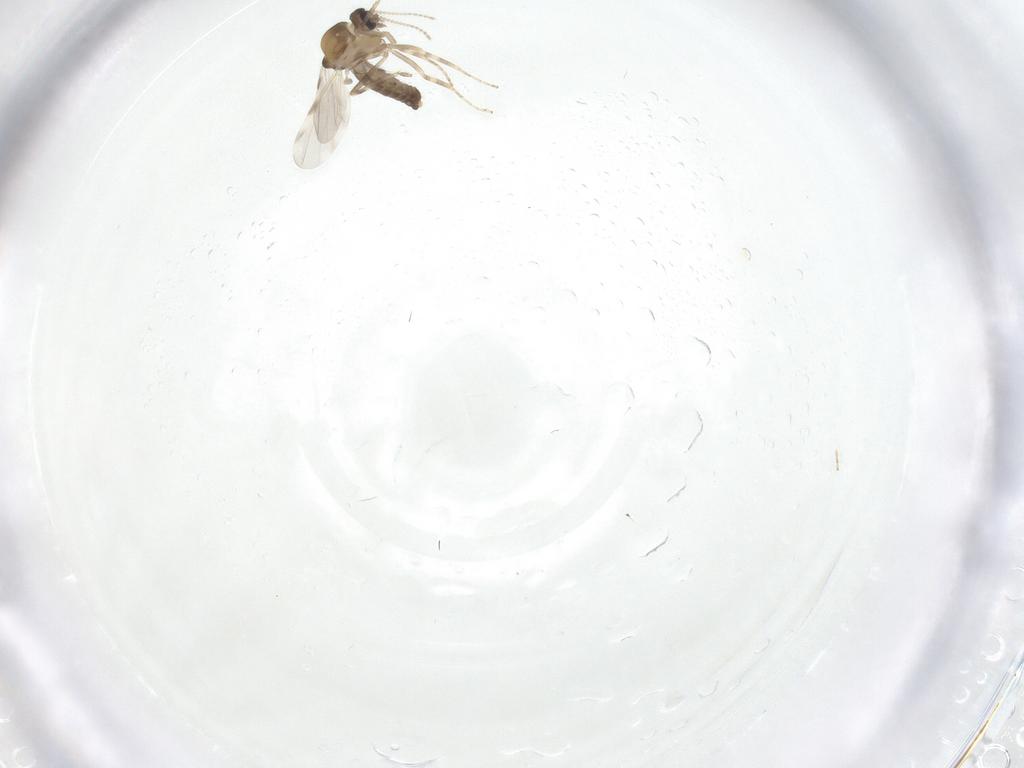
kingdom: Animalia
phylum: Arthropoda
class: Insecta
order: Diptera
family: Ceratopogonidae
